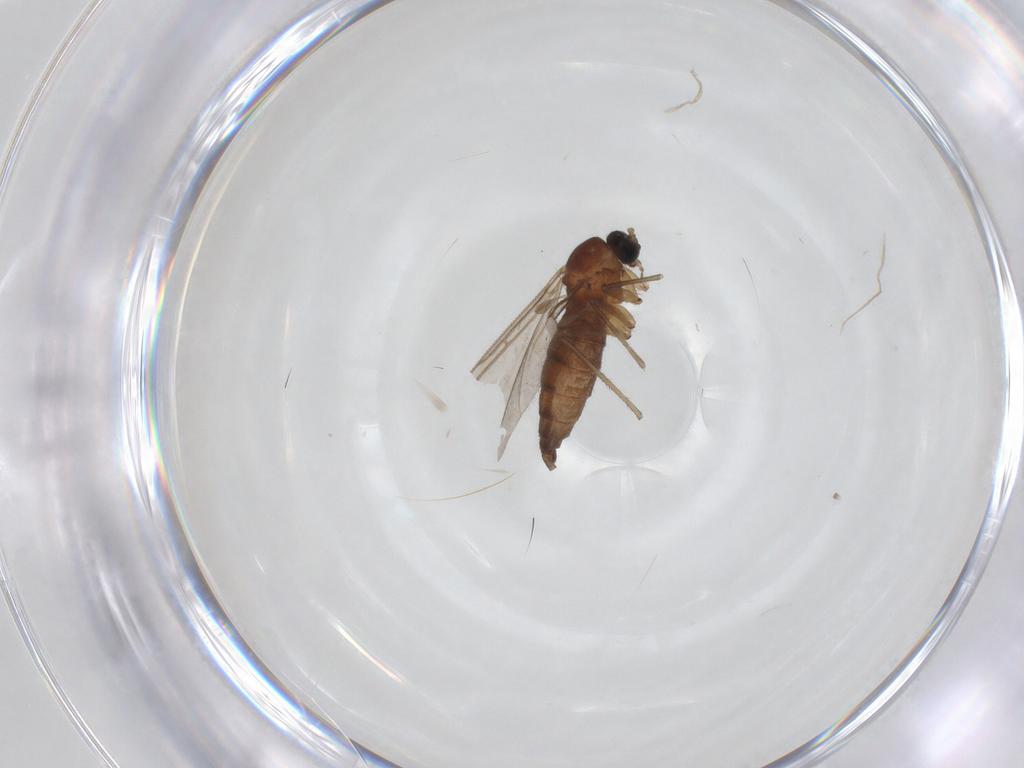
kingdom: Animalia
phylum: Arthropoda
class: Insecta
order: Diptera
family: Sciaridae
